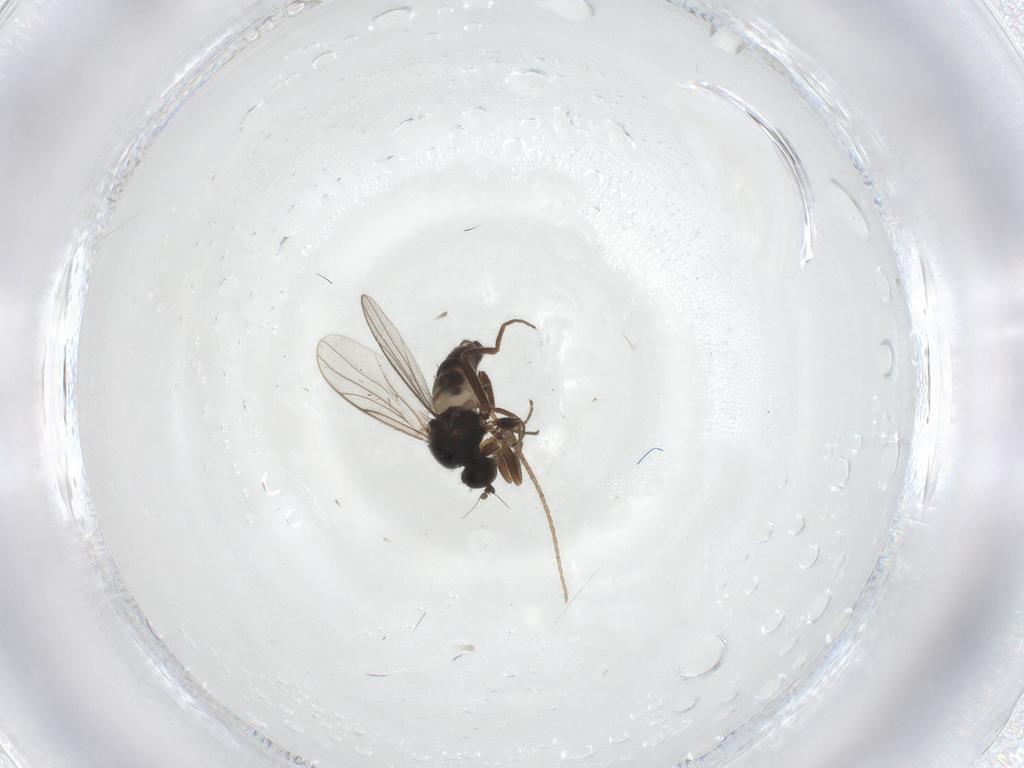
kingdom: Animalia
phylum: Arthropoda
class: Insecta
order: Diptera
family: Hybotidae
